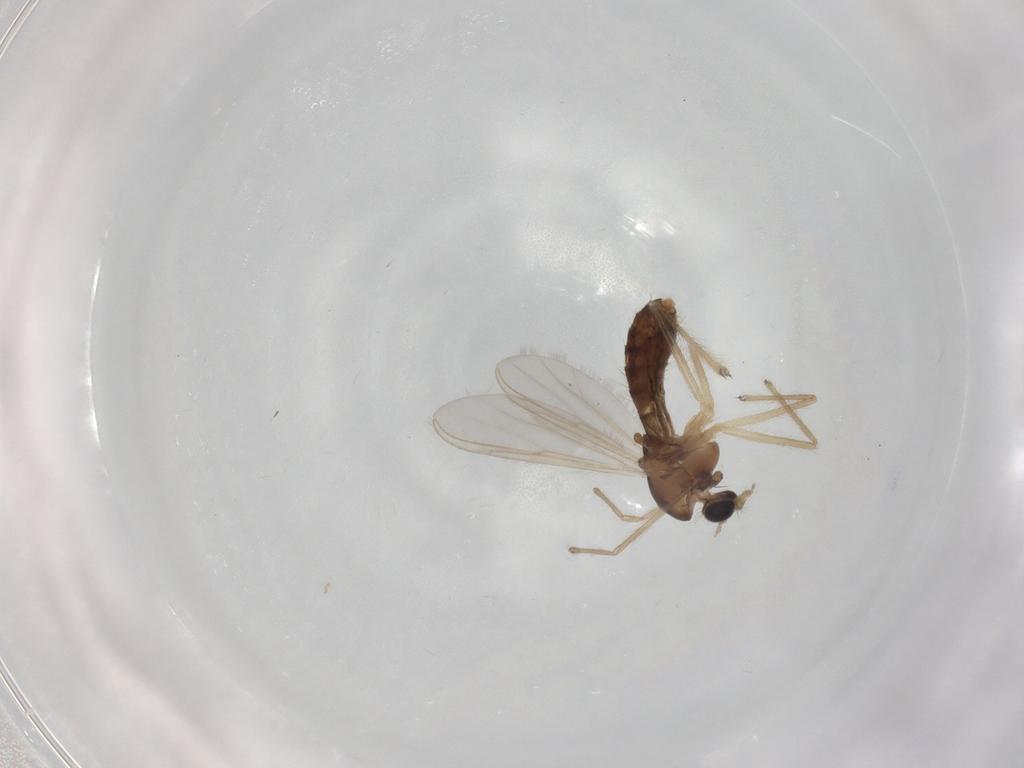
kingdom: Animalia
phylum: Arthropoda
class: Insecta
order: Diptera
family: Chironomidae
